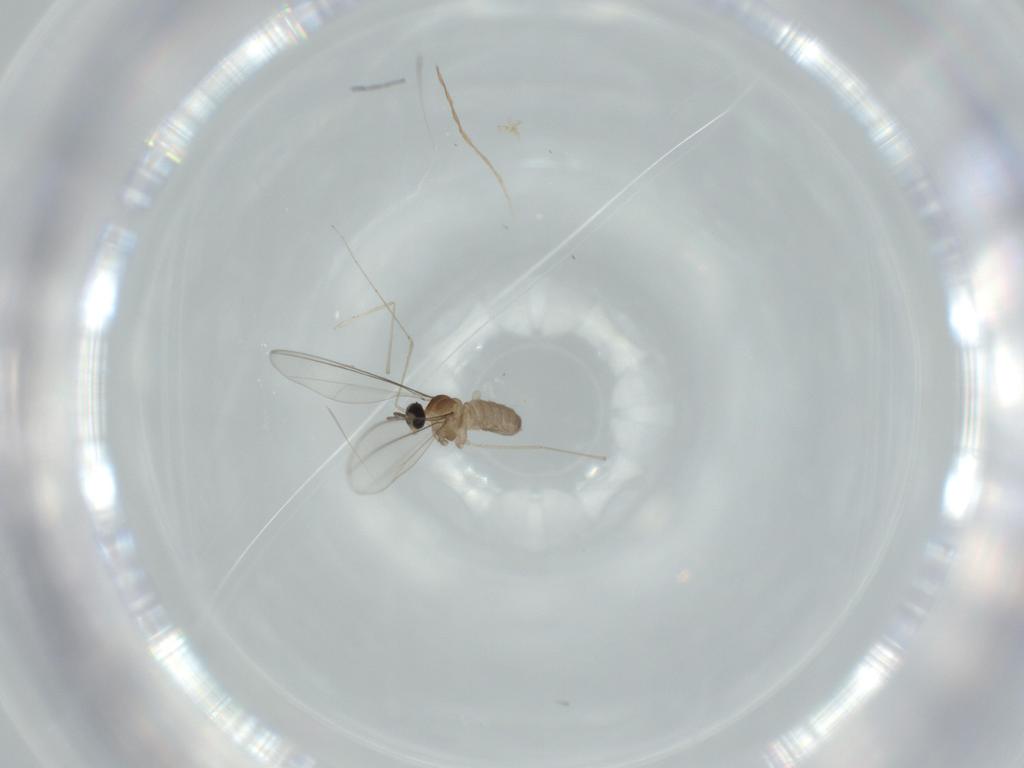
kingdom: Animalia
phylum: Arthropoda
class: Insecta
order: Diptera
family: Cecidomyiidae
